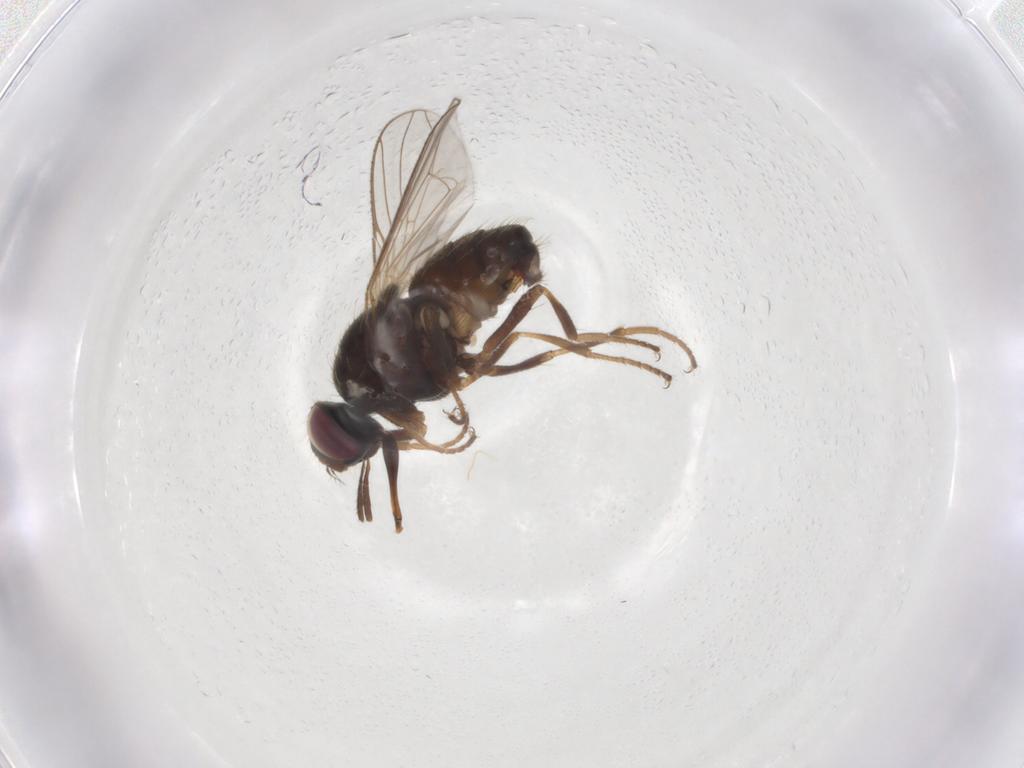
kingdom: Animalia
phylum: Arthropoda
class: Insecta
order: Diptera
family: Muscidae
